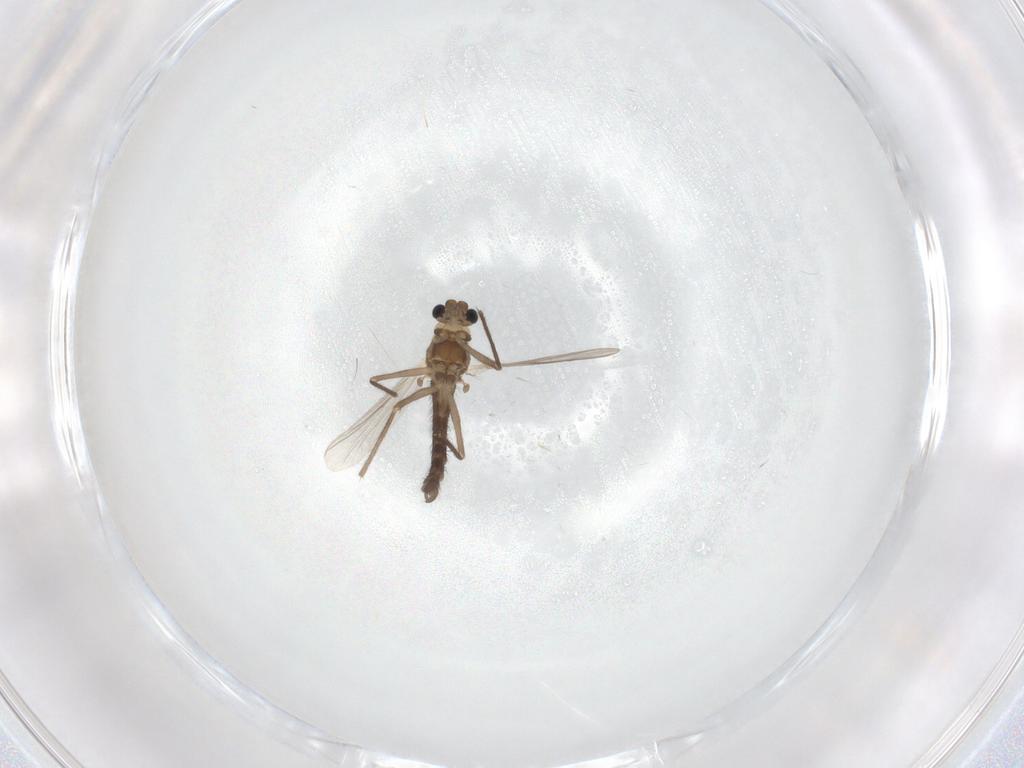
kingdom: Animalia
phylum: Arthropoda
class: Insecta
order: Diptera
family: Chironomidae
